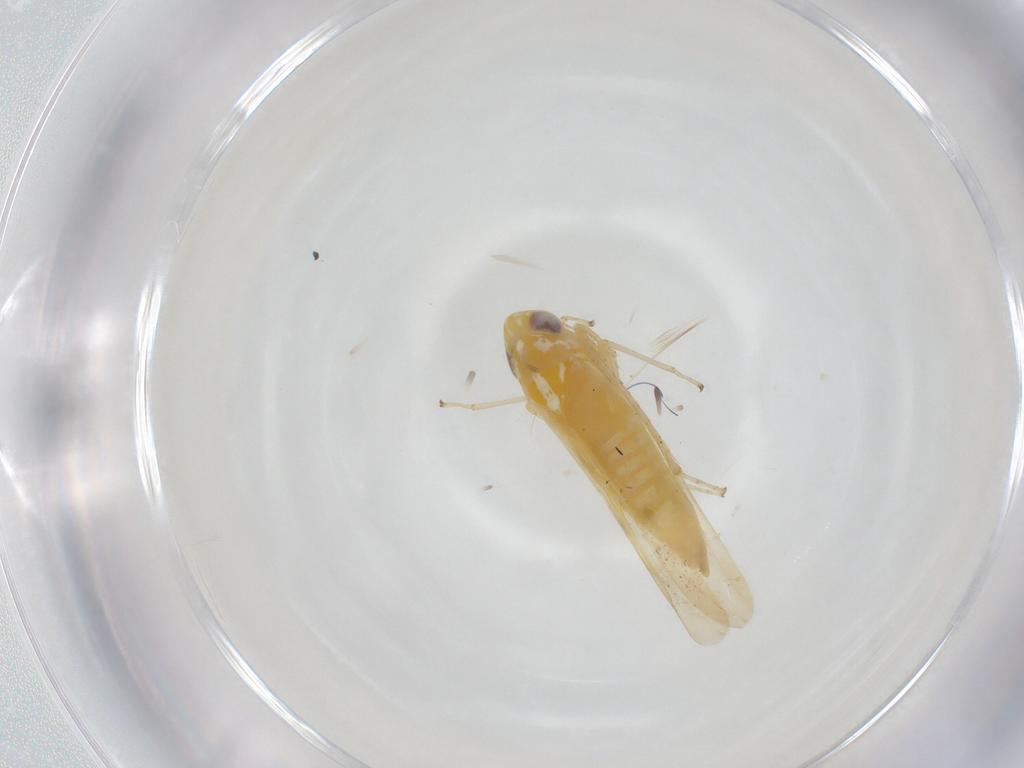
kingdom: Animalia
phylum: Arthropoda
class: Insecta
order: Hemiptera
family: Cicadellidae
